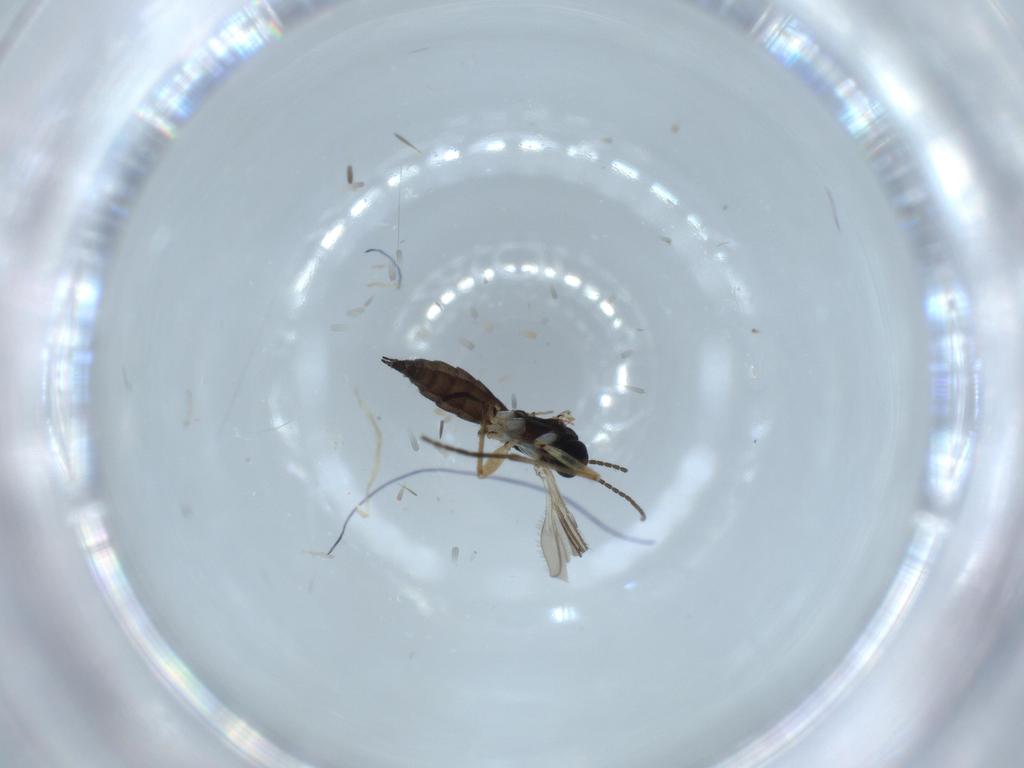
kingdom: Animalia
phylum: Arthropoda
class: Insecta
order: Diptera
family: Sciaridae
